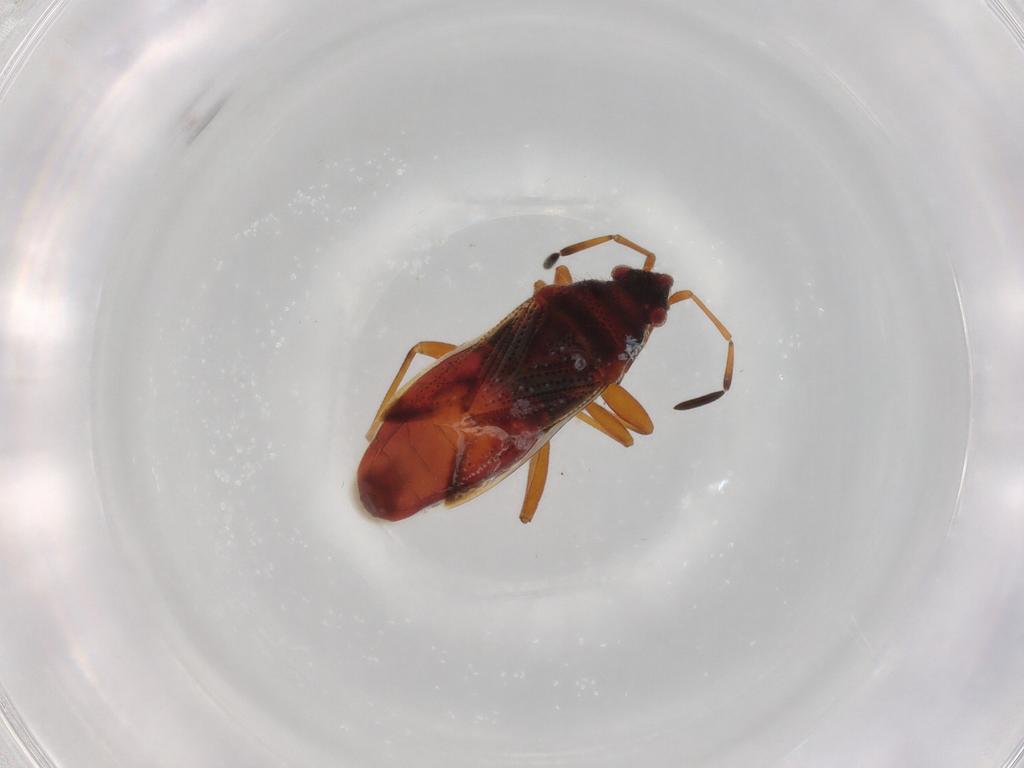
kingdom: Animalia
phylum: Arthropoda
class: Insecta
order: Hemiptera
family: Rhyparochromidae
